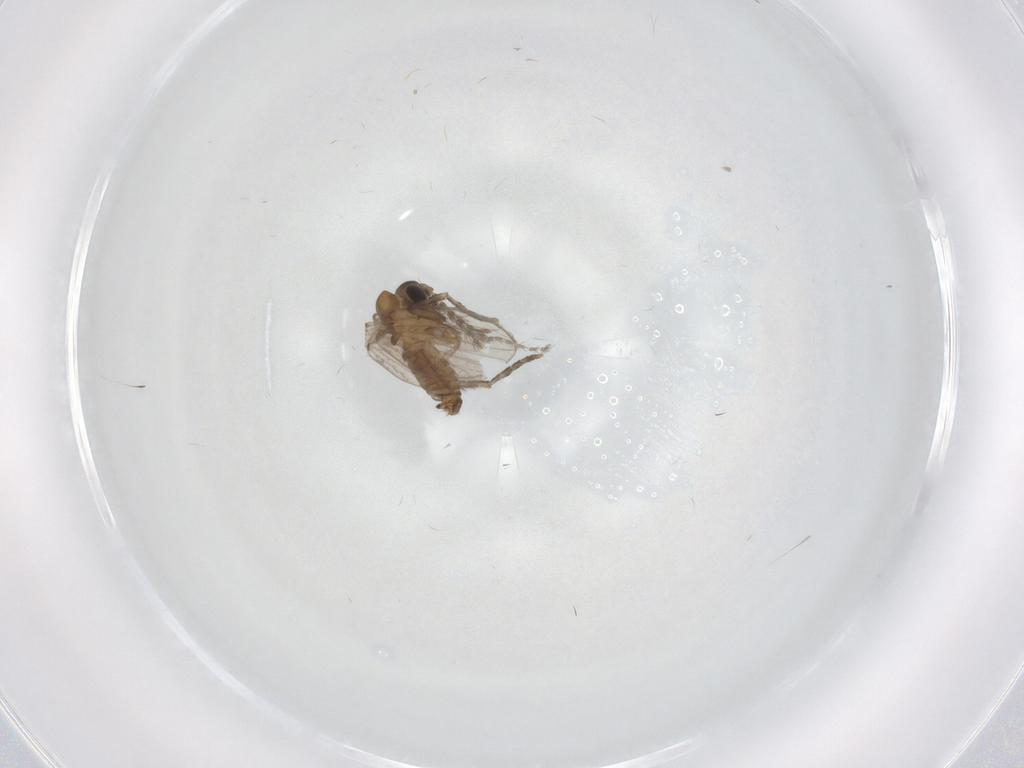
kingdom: Animalia
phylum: Arthropoda
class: Insecta
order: Diptera
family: Psychodidae
